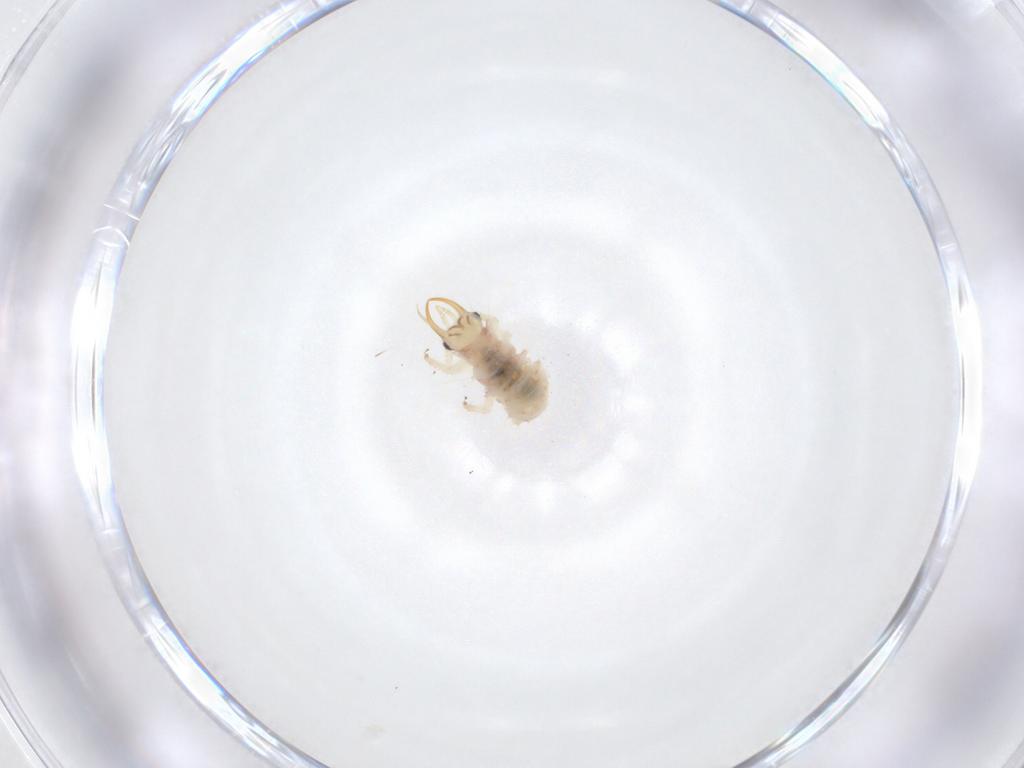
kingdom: Animalia
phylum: Arthropoda
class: Insecta
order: Neuroptera
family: Chrysopidae
